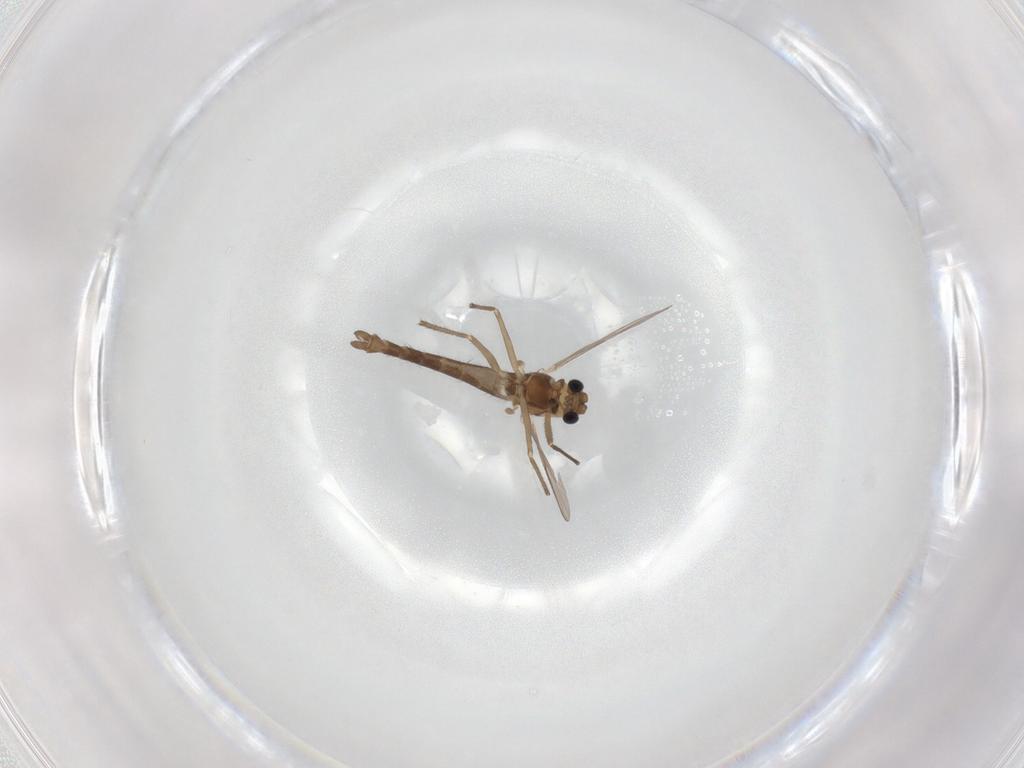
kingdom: Animalia
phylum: Arthropoda
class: Insecta
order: Diptera
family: Chironomidae
